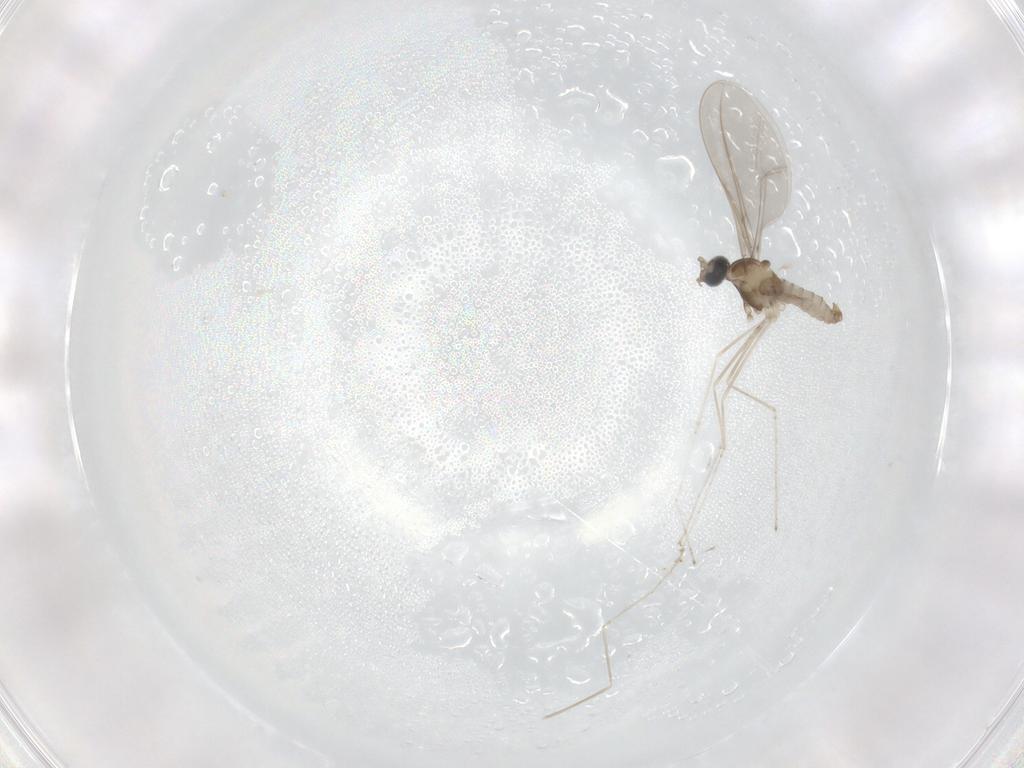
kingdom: Animalia
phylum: Arthropoda
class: Insecta
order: Diptera
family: Cecidomyiidae
